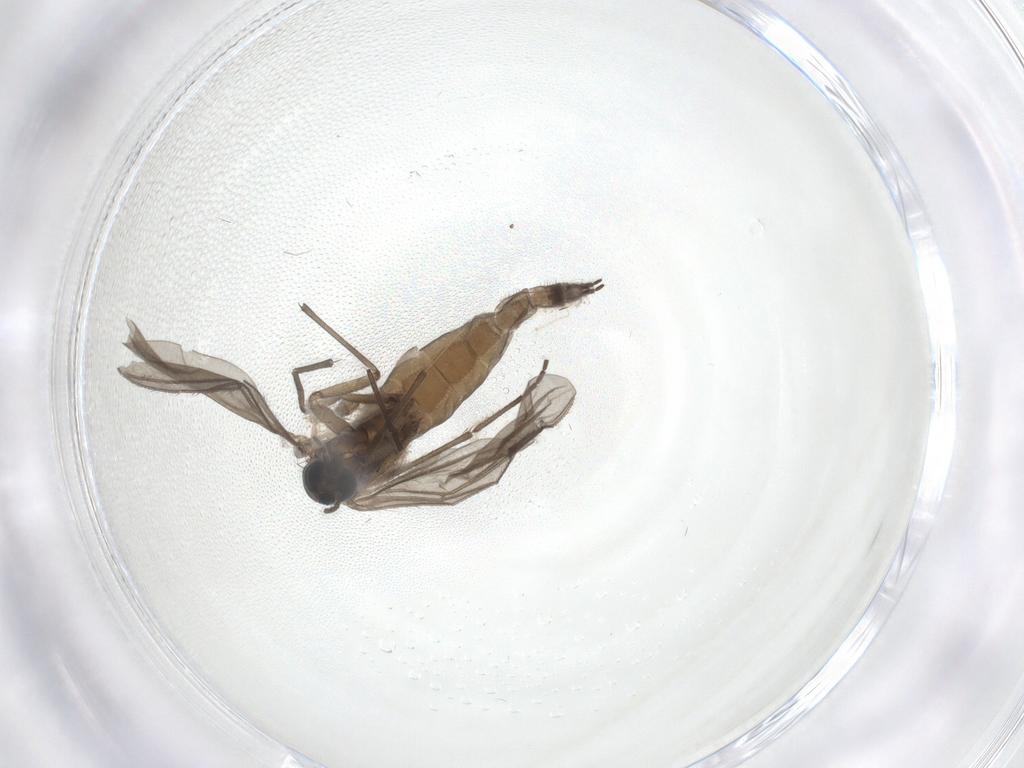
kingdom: Animalia
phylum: Arthropoda
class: Insecta
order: Diptera
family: Sciaridae
